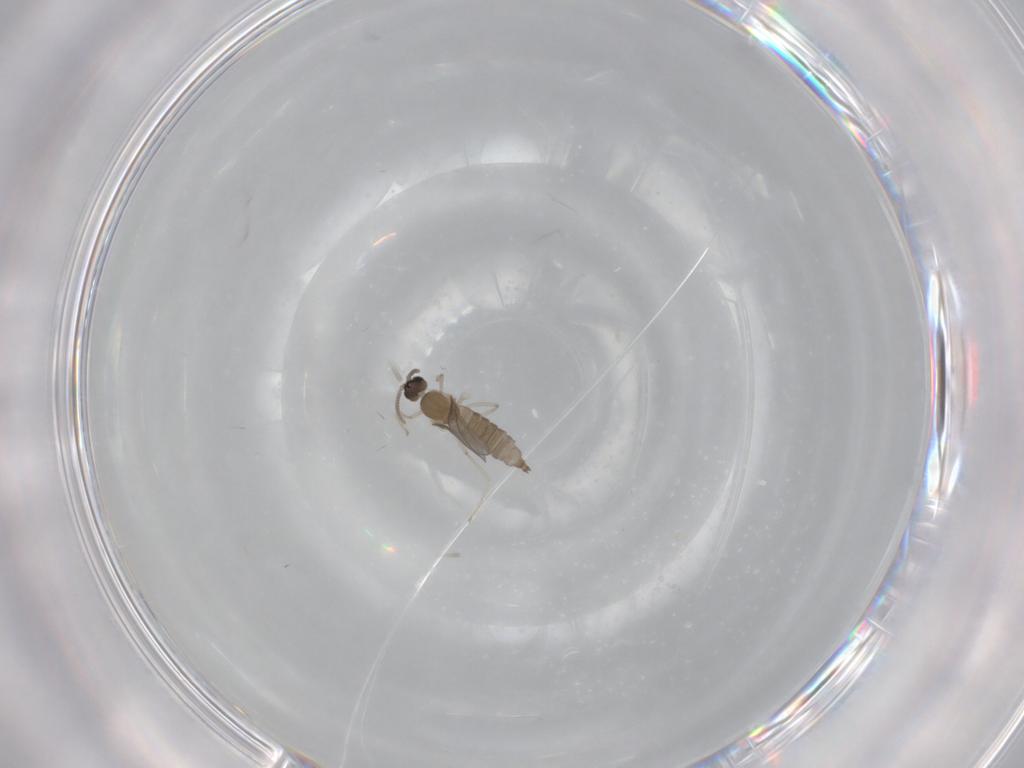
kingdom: Animalia
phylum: Arthropoda
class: Insecta
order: Diptera
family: Cecidomyiidae
